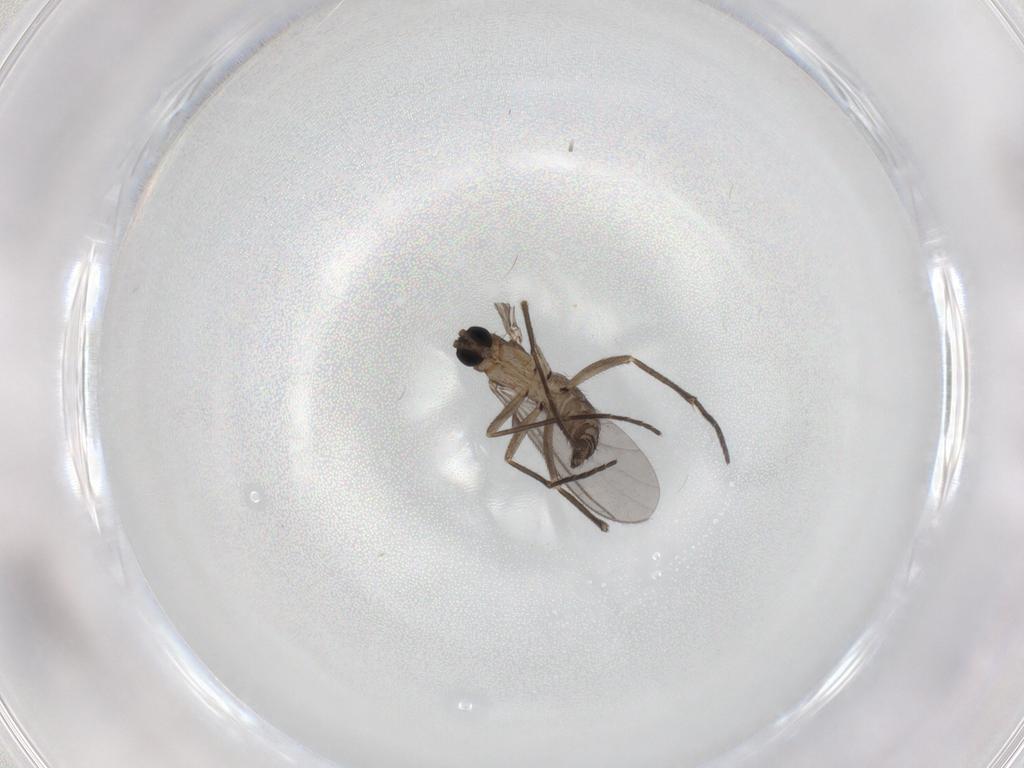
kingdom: Animalia
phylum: Arthropoda
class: Insecta
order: Diptera
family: Sciaridae
